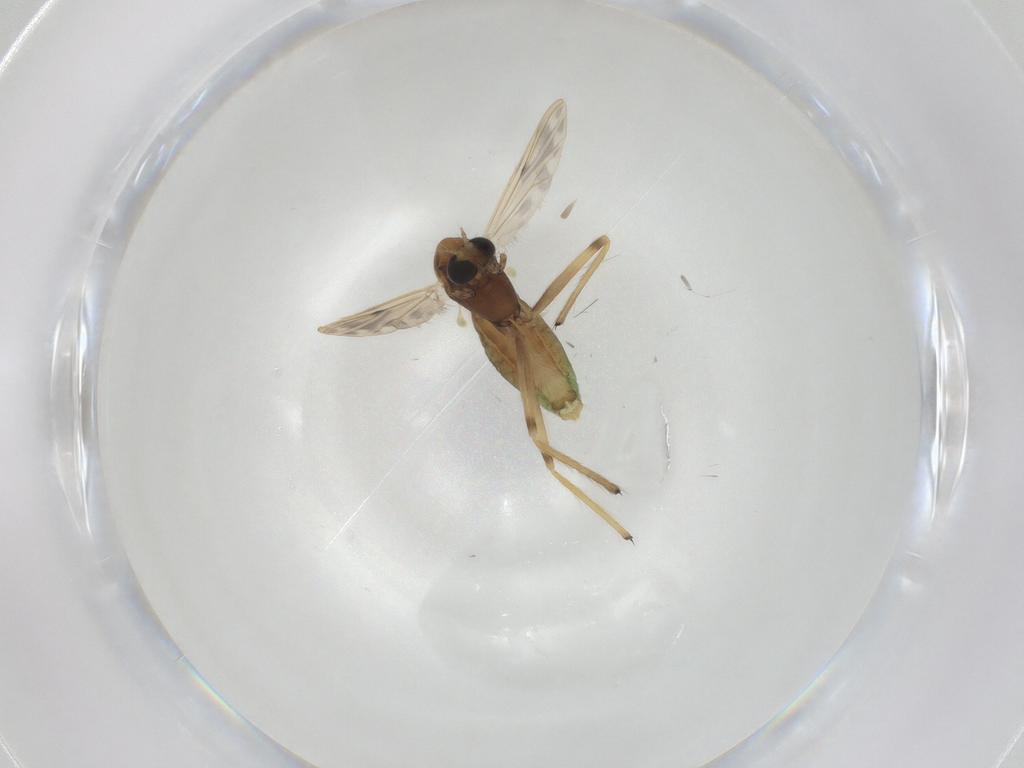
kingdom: Animalia
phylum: Arthropoda
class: Insecta
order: Diptera
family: Chironomidae
